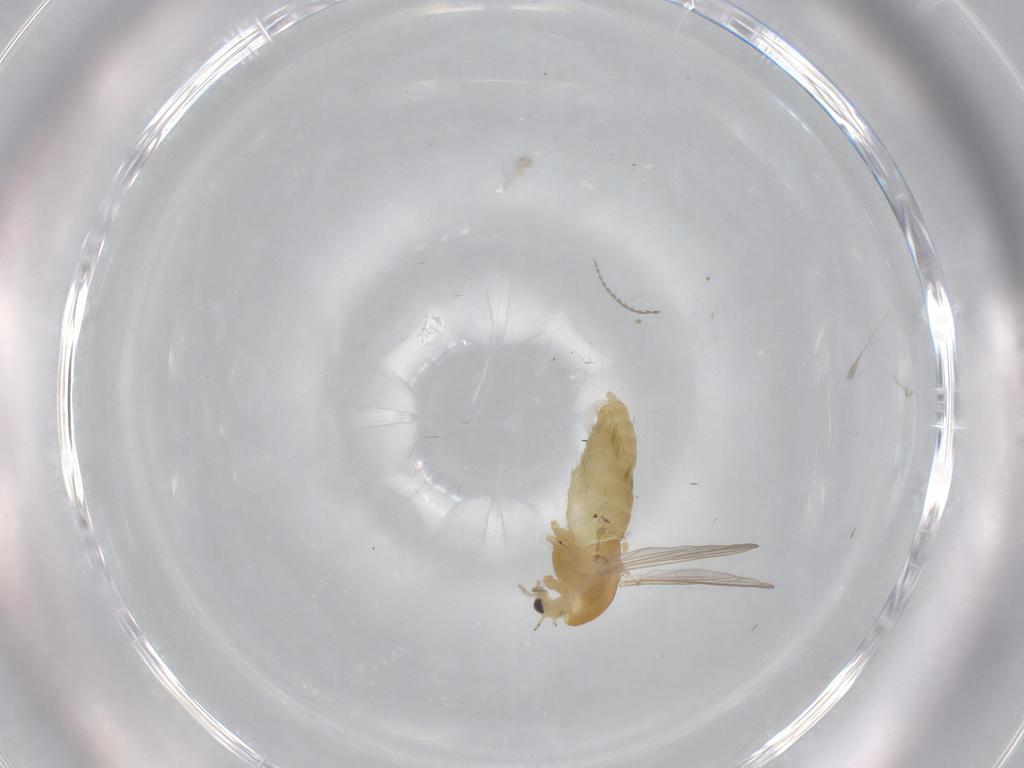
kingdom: Animalia
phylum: Arthropoda
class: Insecta
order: Diptera
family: Chironomidae
